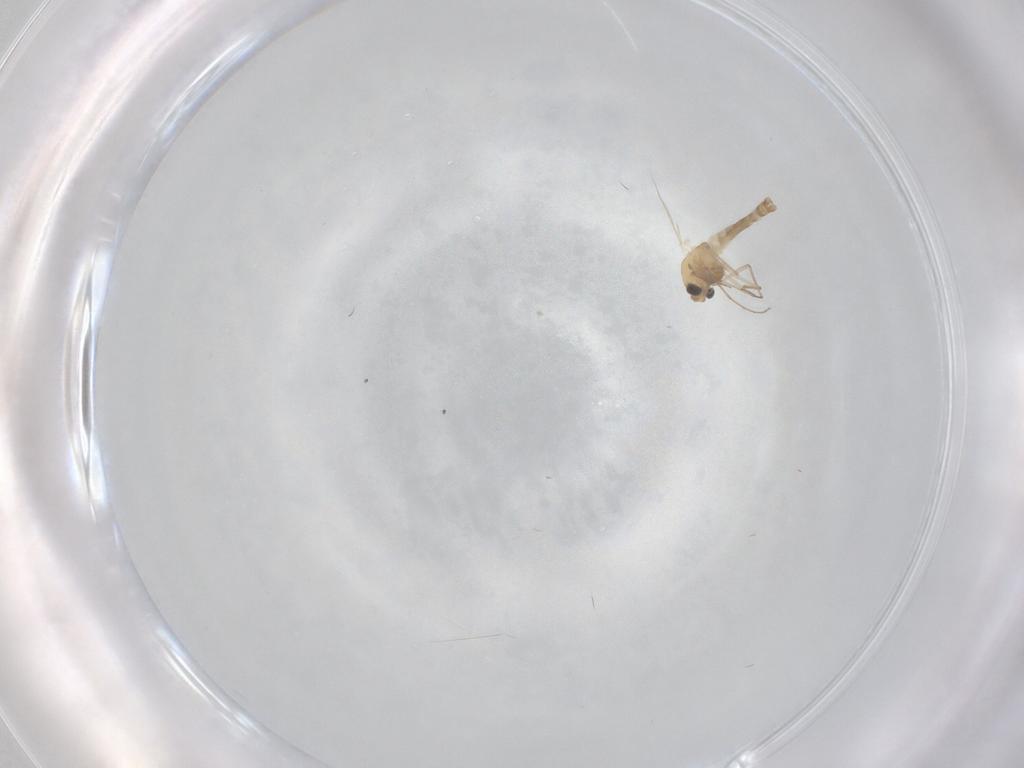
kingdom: Animalia
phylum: Arthropoda
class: Insecta
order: Diptera
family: Chironomidae
